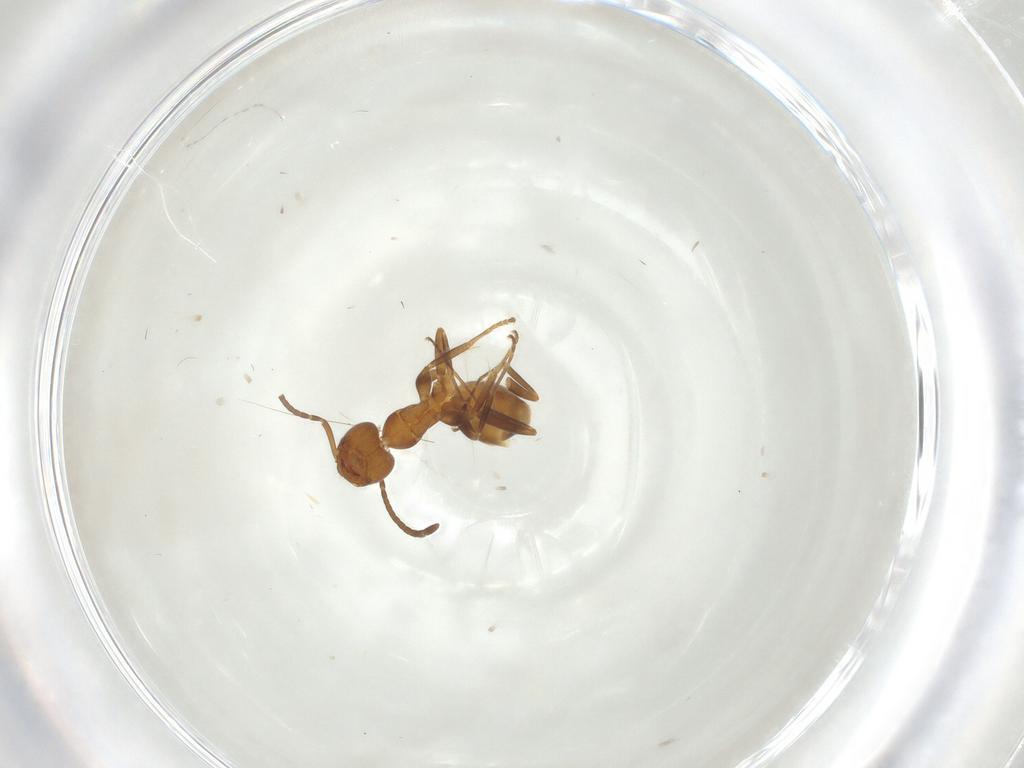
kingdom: Animalia
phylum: Arthropoda
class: Insecta
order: Hymenoptera
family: Formicidae
